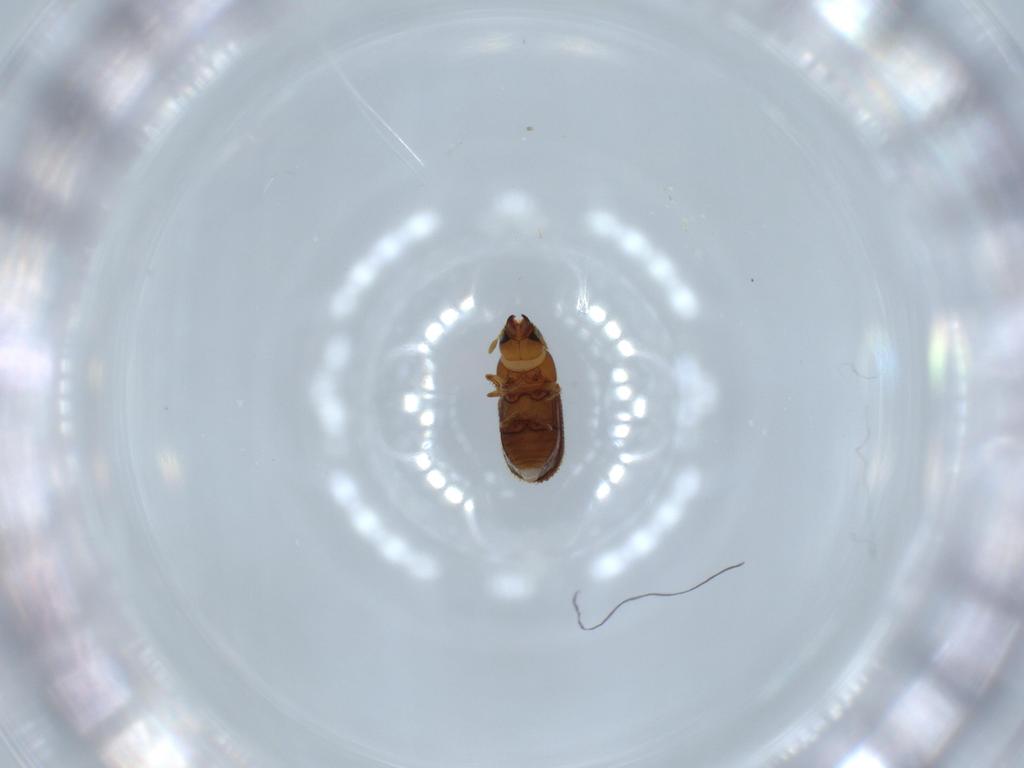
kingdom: Animalia
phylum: Arthropoda
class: Insecta
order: Coleoptera
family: Curculionidae
